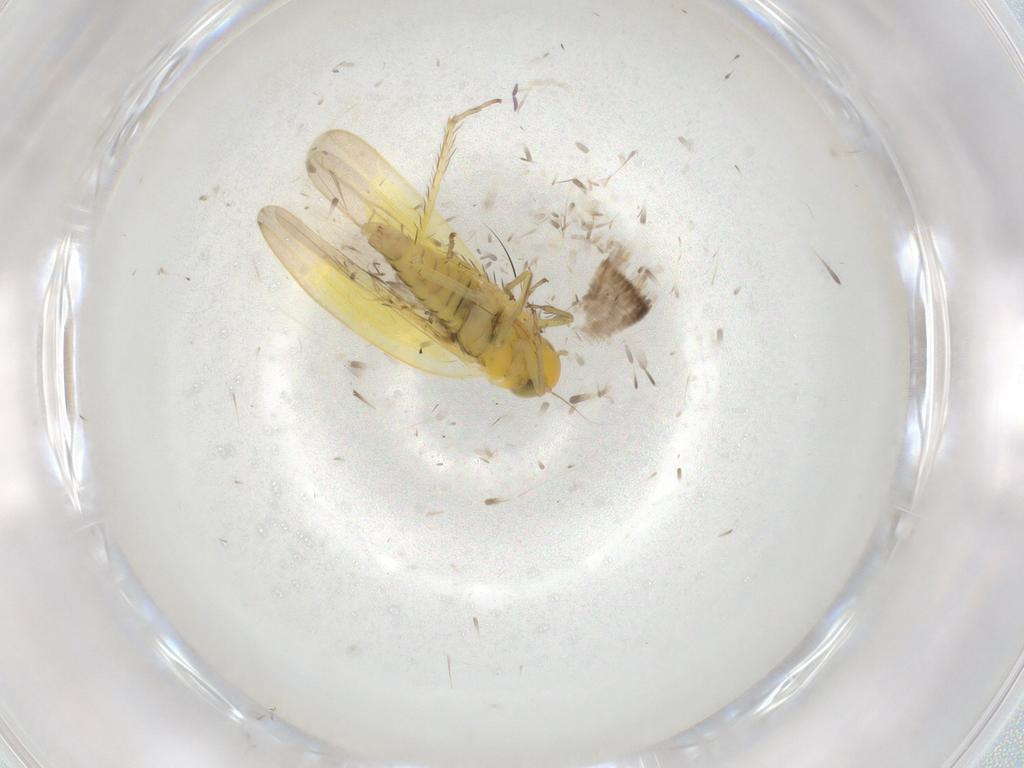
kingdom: Animalia
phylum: Arthropoda
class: Insecta
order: Hemiptera
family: Cicadellidae
